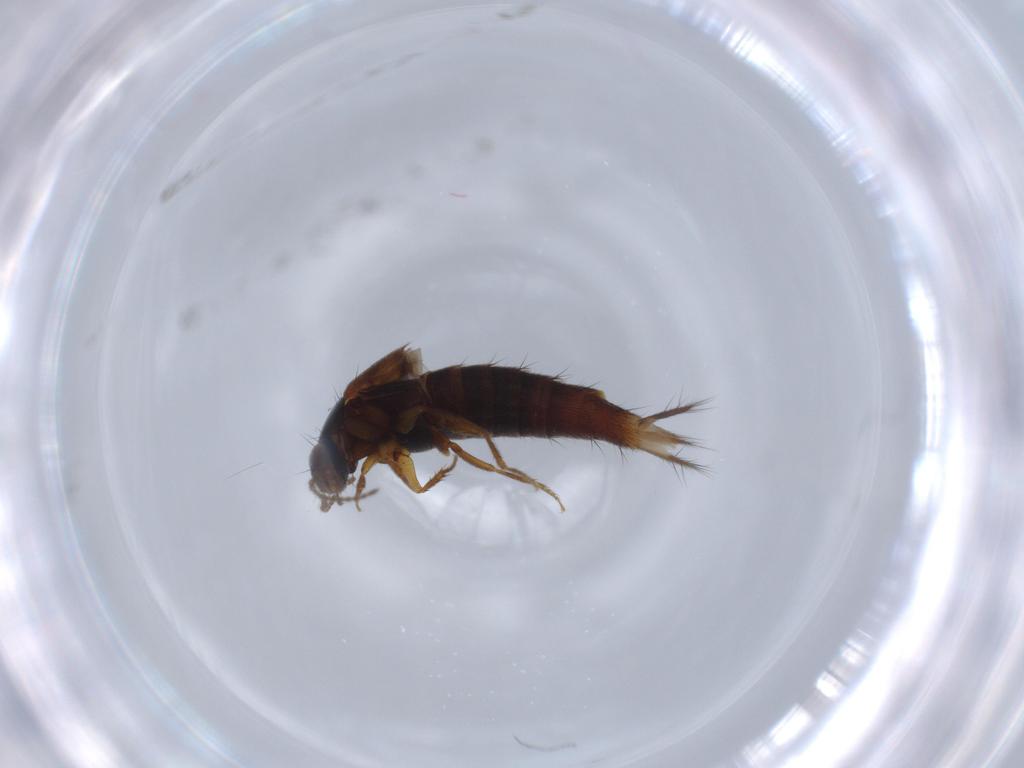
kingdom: Animalia
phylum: Arthropoda
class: Insecta
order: Coleoptera
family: Staphylinidae
